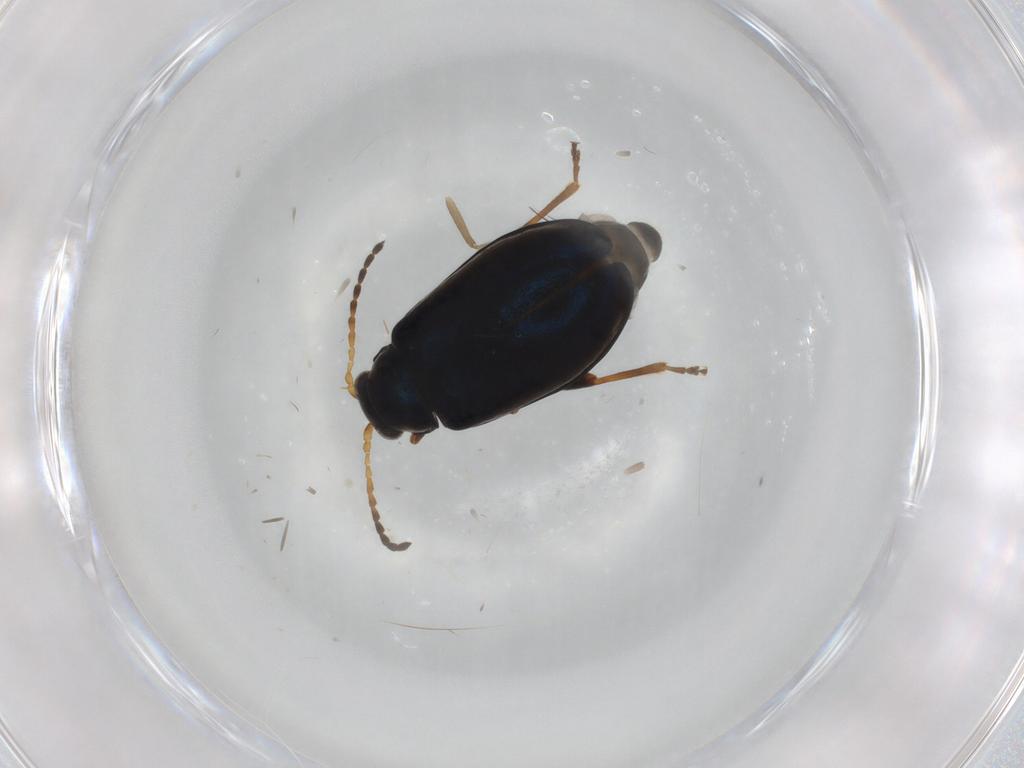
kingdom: Animalia
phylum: Arthropoda
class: Insecta
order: Coleoptera
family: Chrysomelidae
